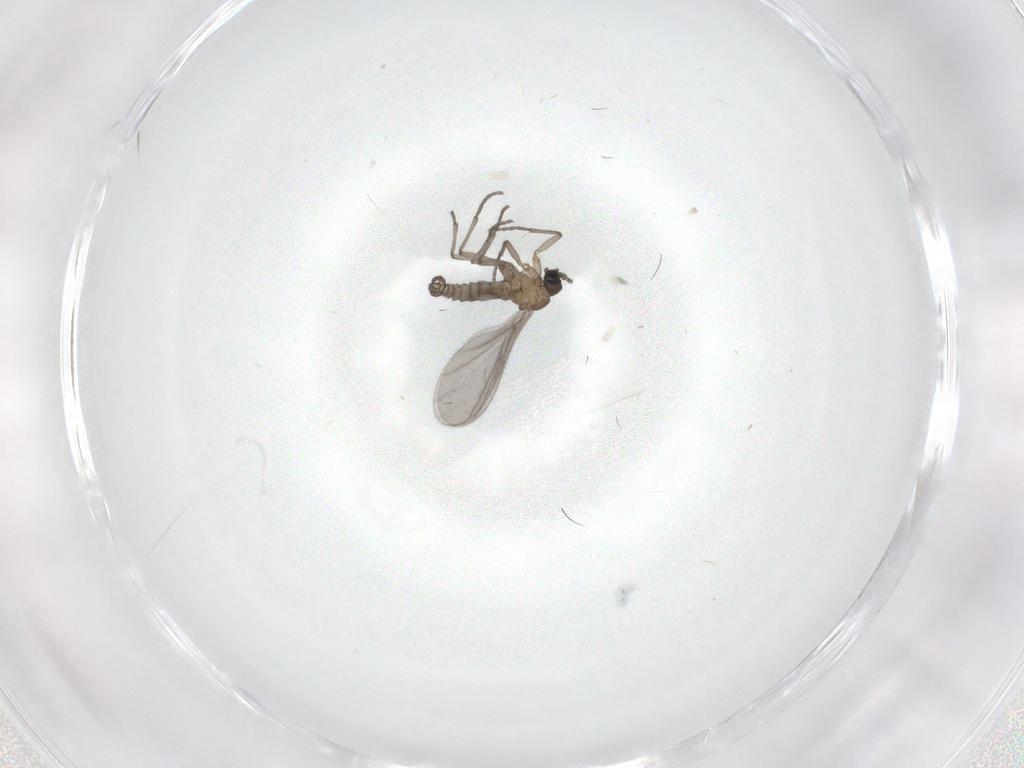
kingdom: Animalia
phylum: Arthropoda
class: Insecta
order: Diptera
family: Sciaridae
